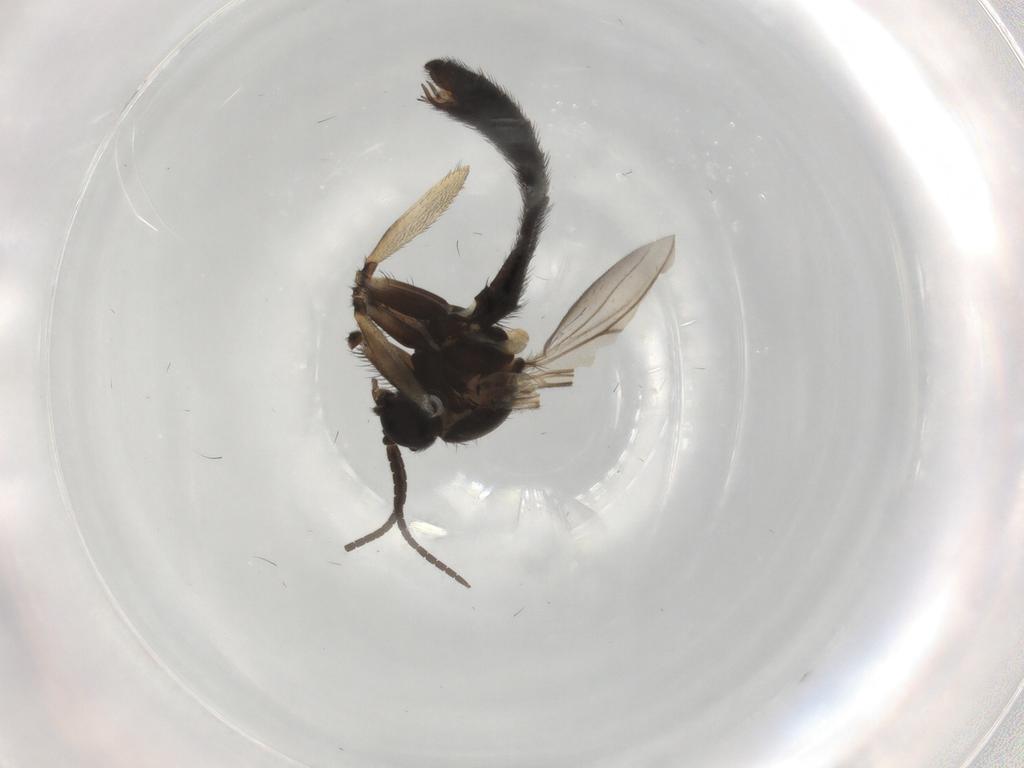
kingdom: Animalia
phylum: Arthropoda
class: Insecta
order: Diptera
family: Keroplatidae
